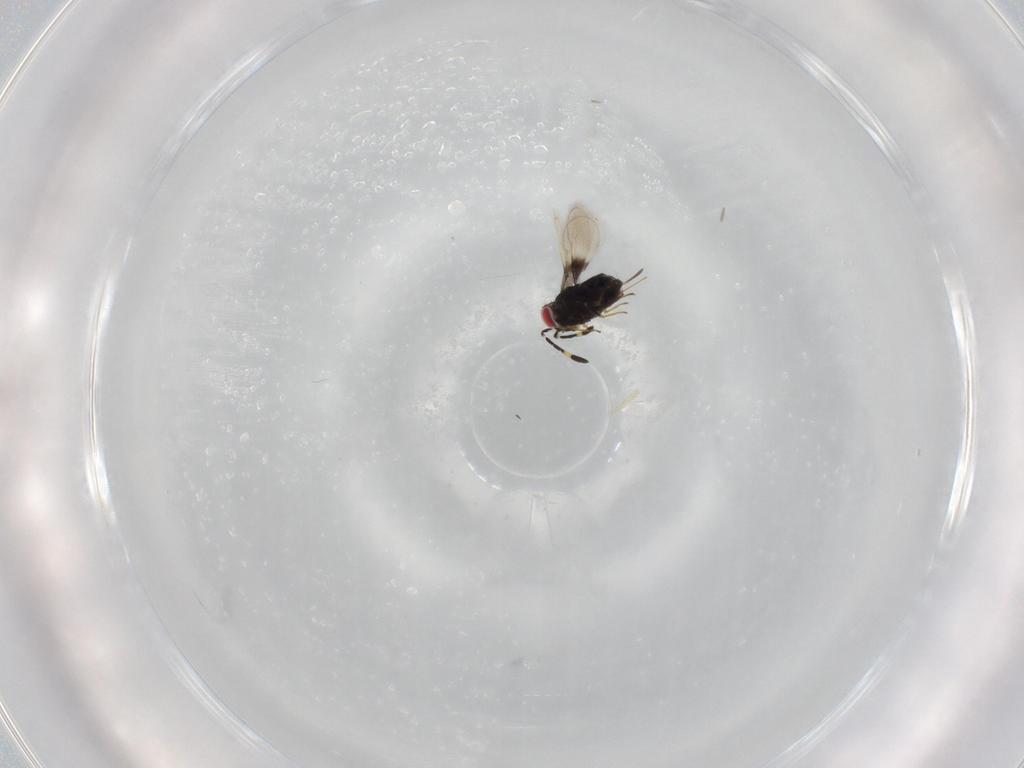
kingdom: Animalia
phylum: Arthropoda
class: Insecta
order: Hymenoptera
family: Azotidae
